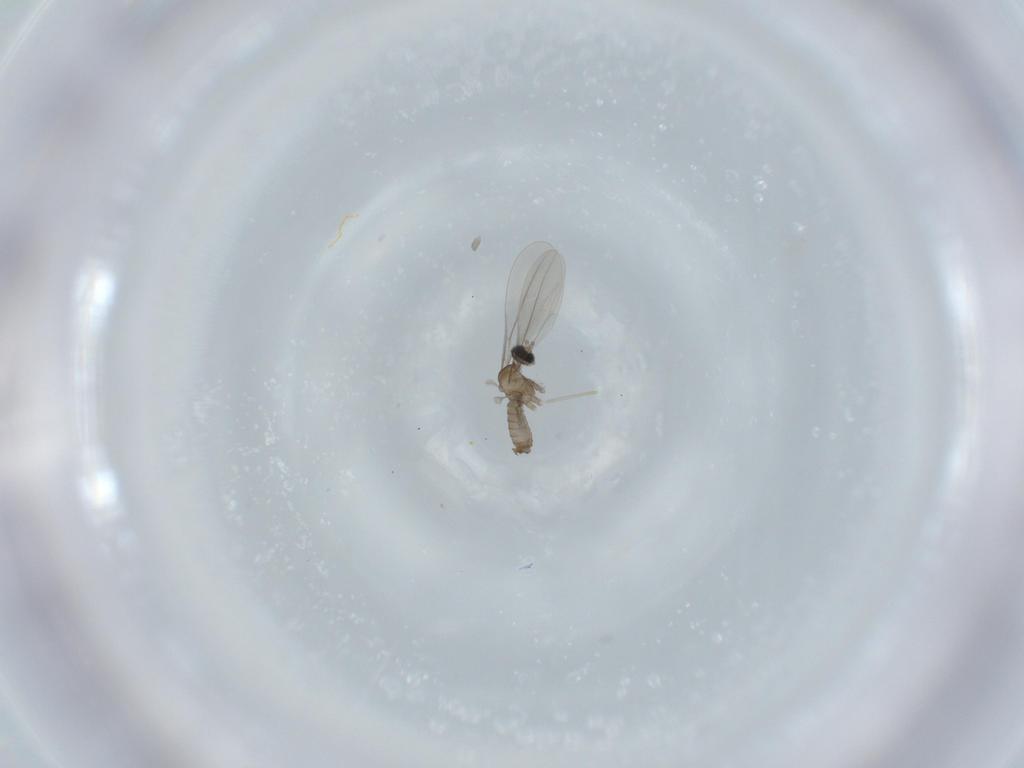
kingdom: Animalia
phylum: Arthropoda
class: Insecta
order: Diptera
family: Cecidomyiidae
